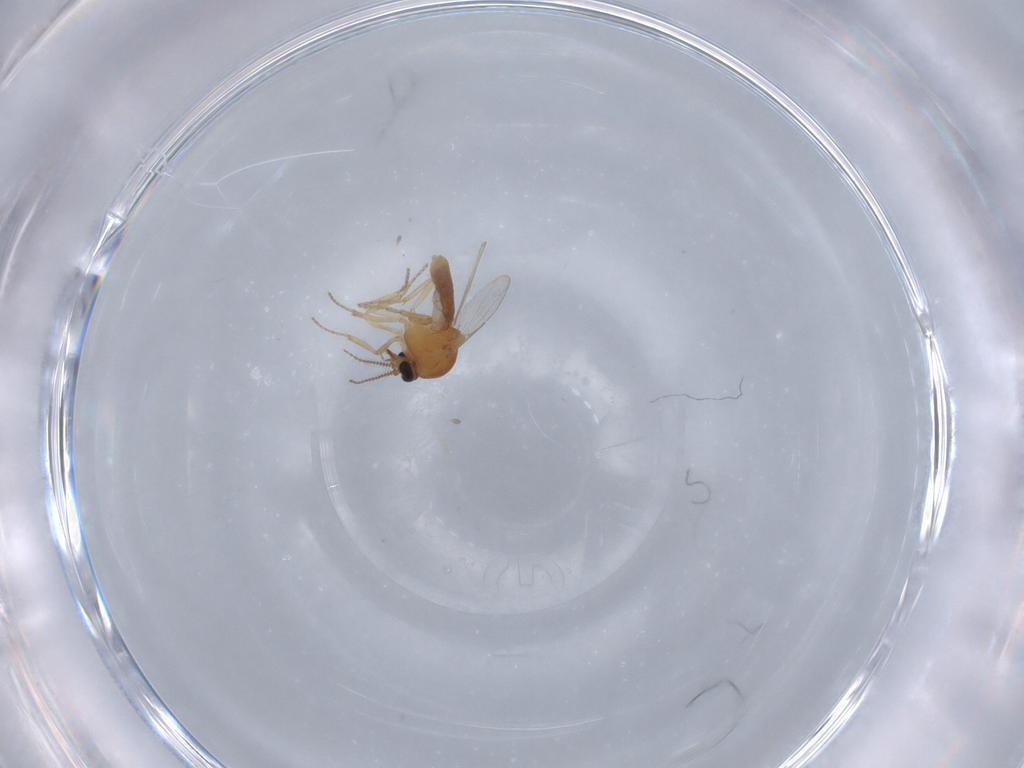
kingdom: Animalia
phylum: Arthropoda
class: Insecta
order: Diptera
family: Ceratopogonidae
